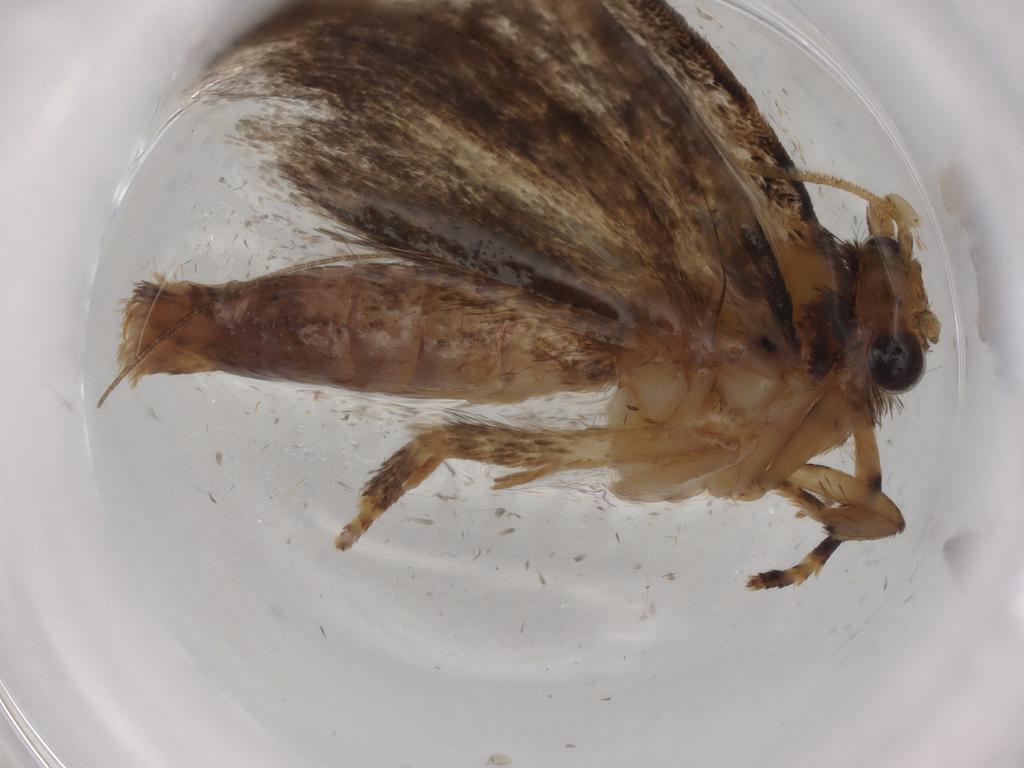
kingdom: Animalia
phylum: Arthropoda
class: Insecta
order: Lepidoptera
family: Tineidae
